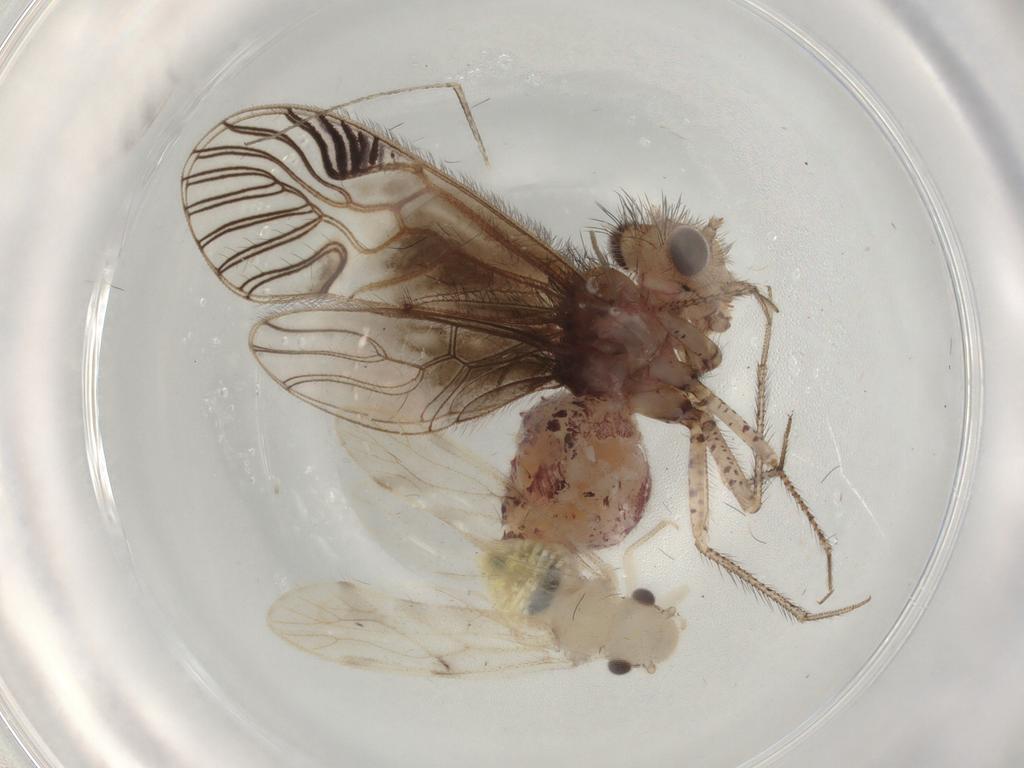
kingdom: Animalia
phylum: Arthropoda
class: Insecta
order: Psocodea
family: Mesopsocidae
